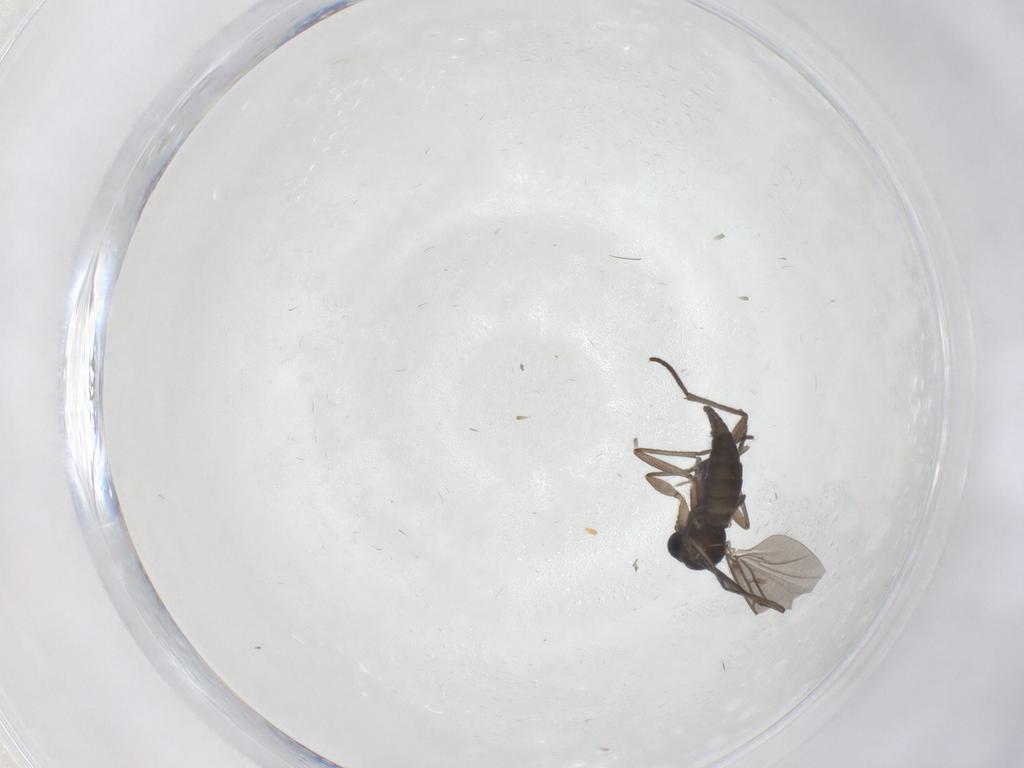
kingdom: Animalia
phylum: Arthropoda
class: Insecta
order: Diptera
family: Sciaridae
